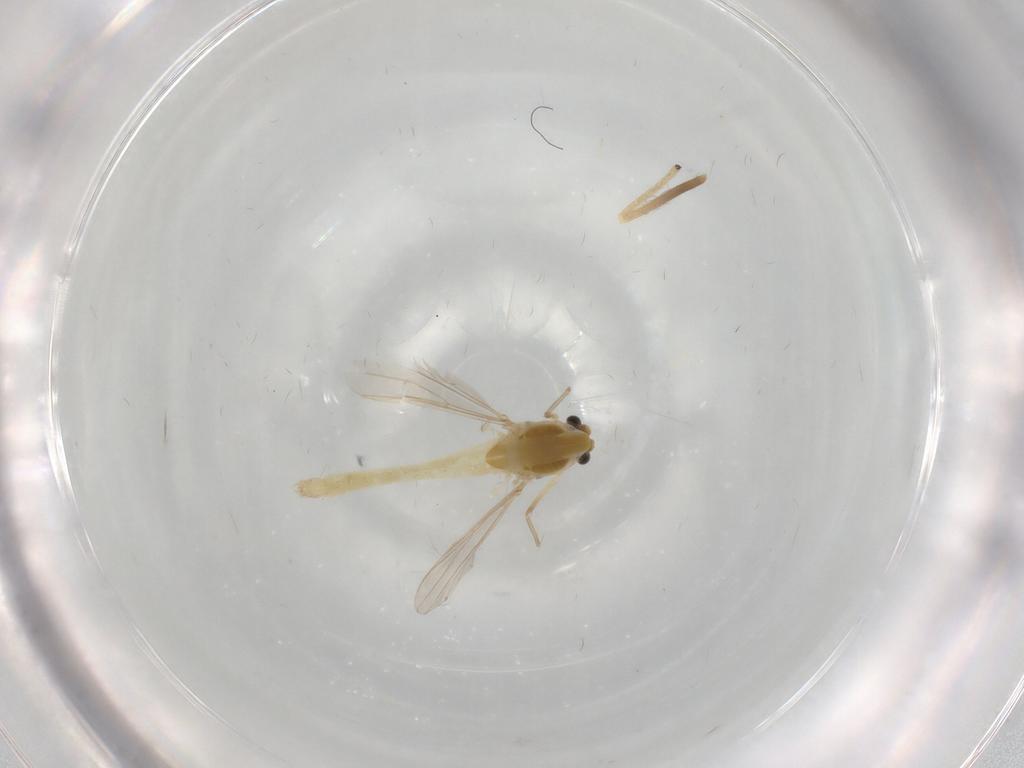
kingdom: Animalia
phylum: Arthropoda
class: Insecta
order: Diptera
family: Chironomidae
